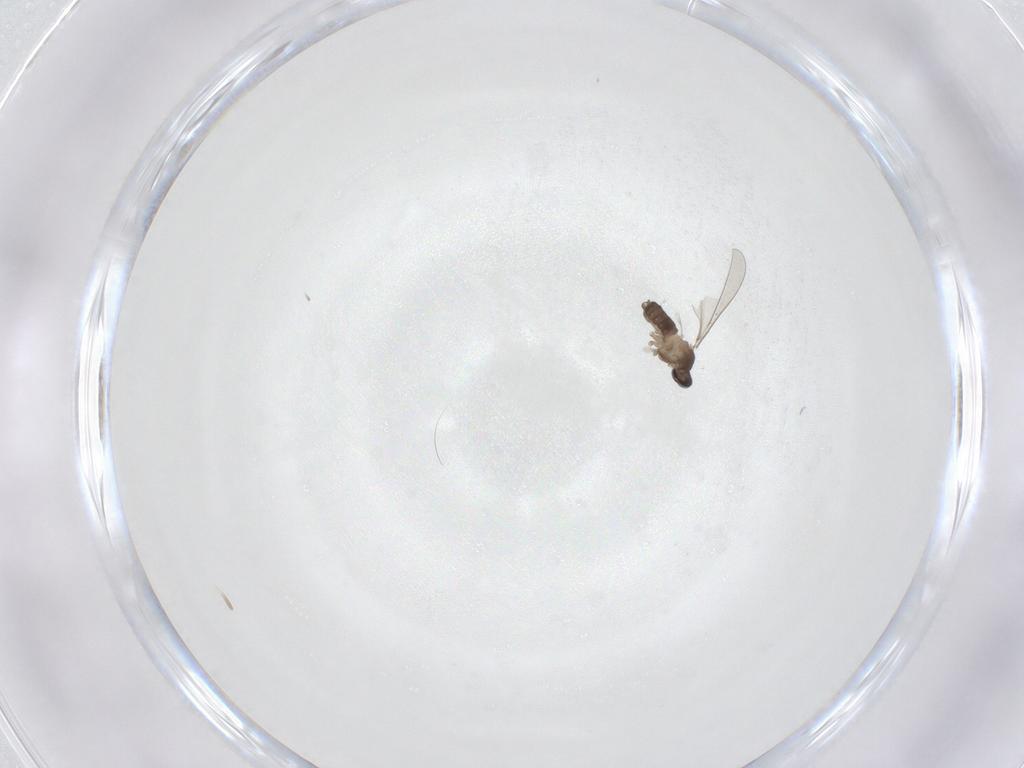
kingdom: Animalia
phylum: Arthropoda
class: Insecta
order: Diptera
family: Cecidomyiidae
